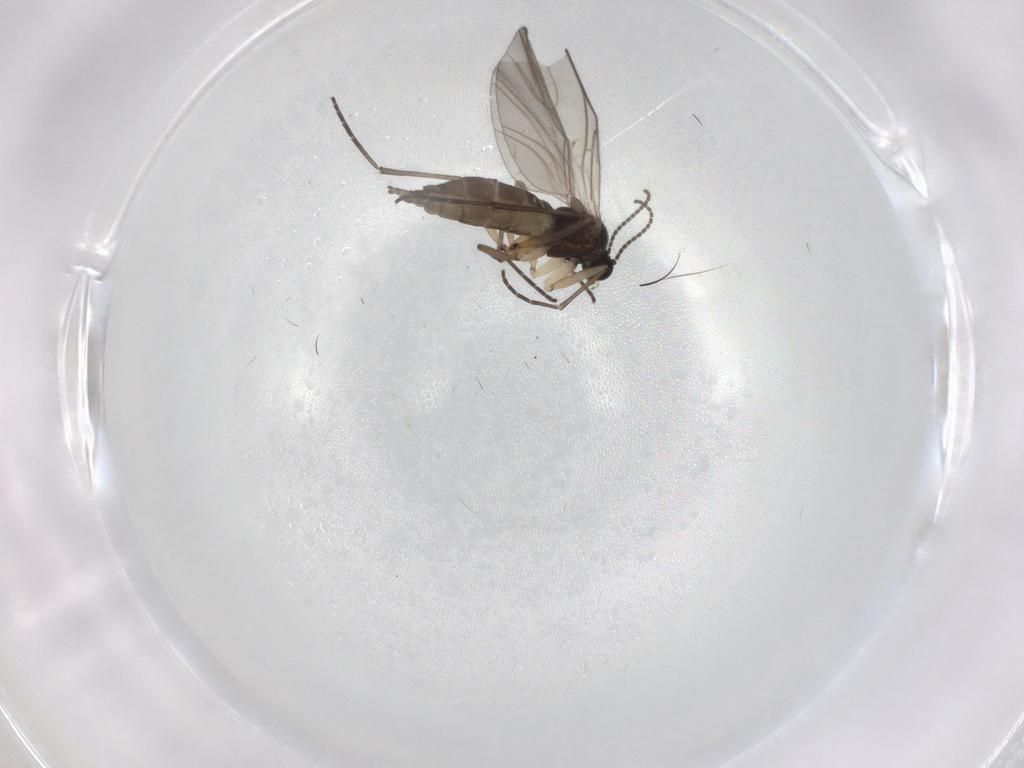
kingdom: Animalia
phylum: Arthropoda
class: Insecta
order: Diptera
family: Sciaridae
